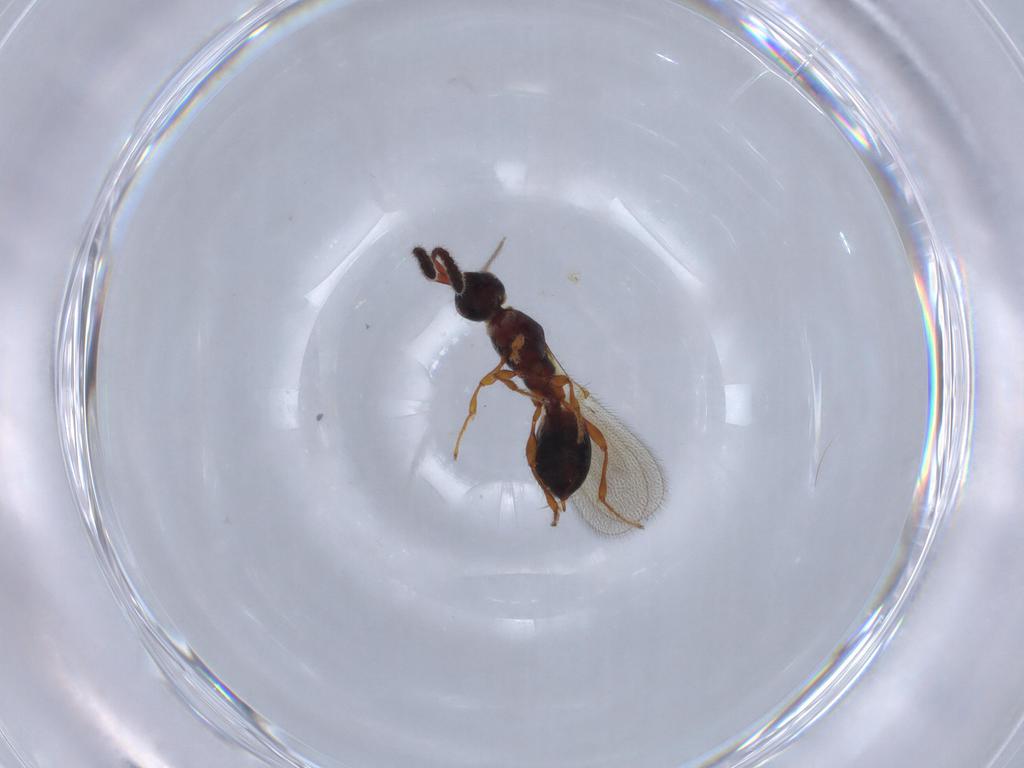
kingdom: Animalia
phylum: Arthropoda
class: Insecta
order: Hymenoptera
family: Diapriidae
